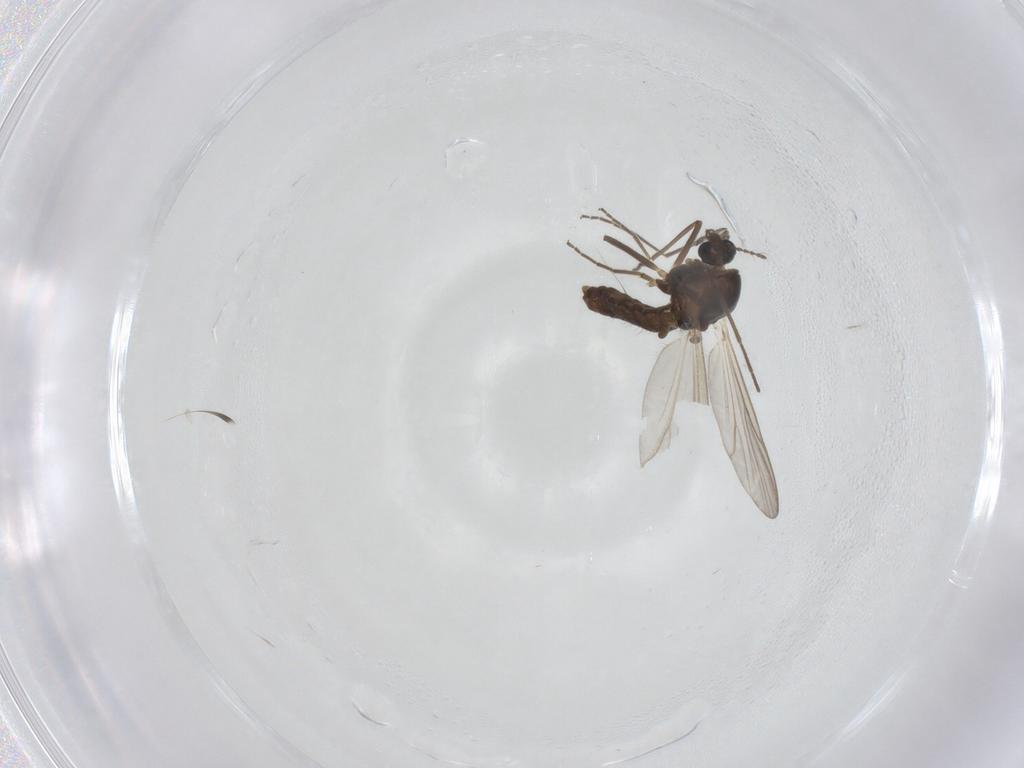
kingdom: Animalia
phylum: Arthropoda
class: Insecta
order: Diptera
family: Chironomidae
